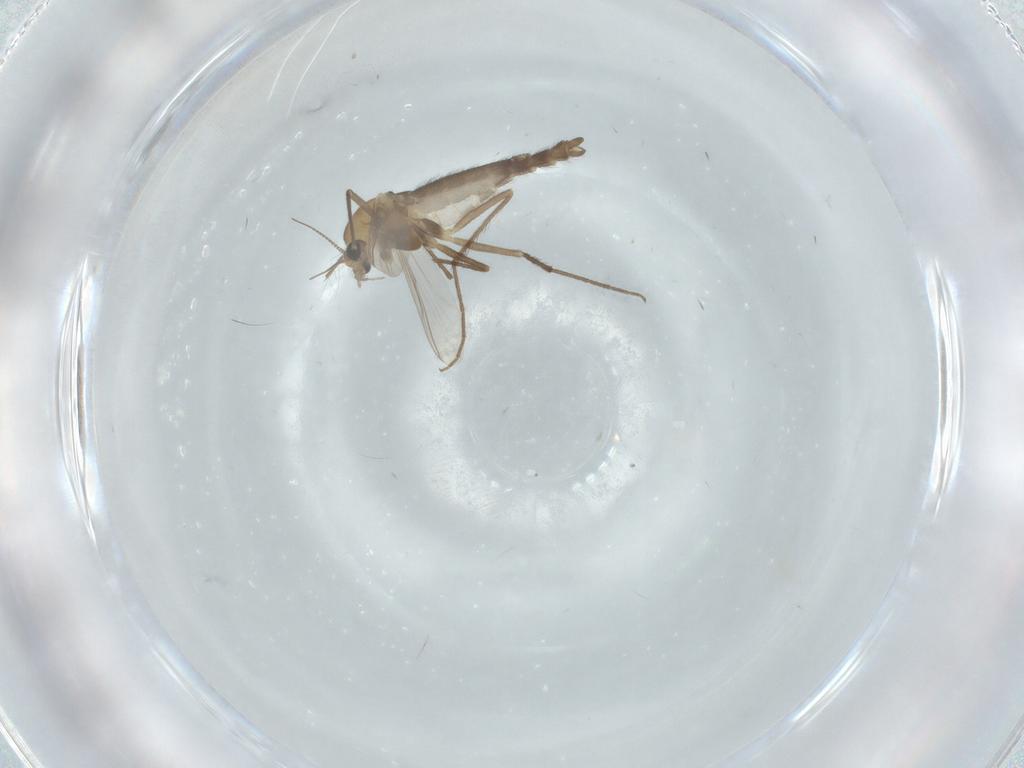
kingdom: Animalia
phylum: Arthropoda
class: Insecta
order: Diptera
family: Chironomidae
